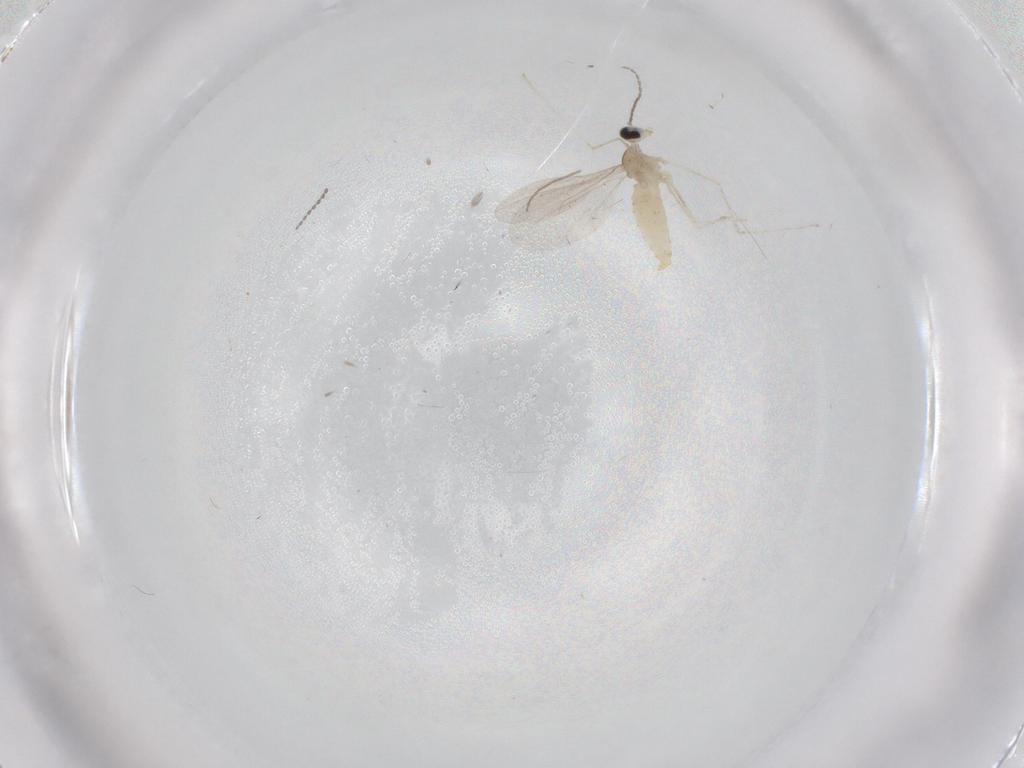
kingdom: Animalia
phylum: Arthropoda
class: Insecta
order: Diptera
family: Cecidomyiidae
